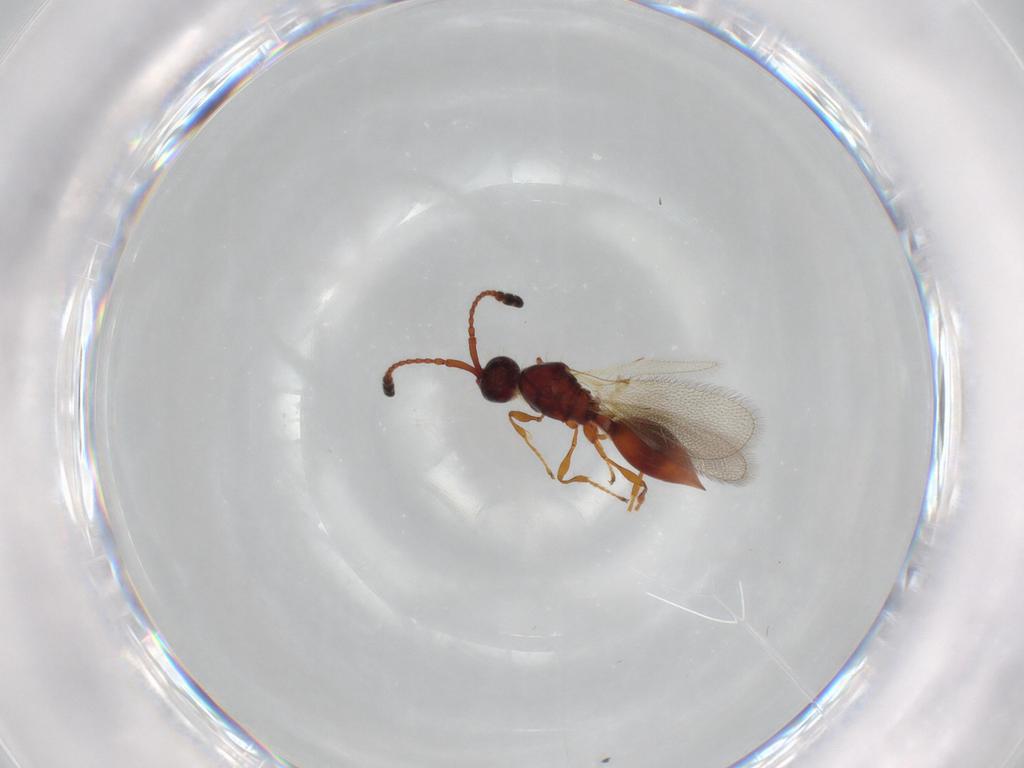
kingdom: Animalia
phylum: Arthropoda
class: Insecta
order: Hymenoptera
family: Diapriidae
